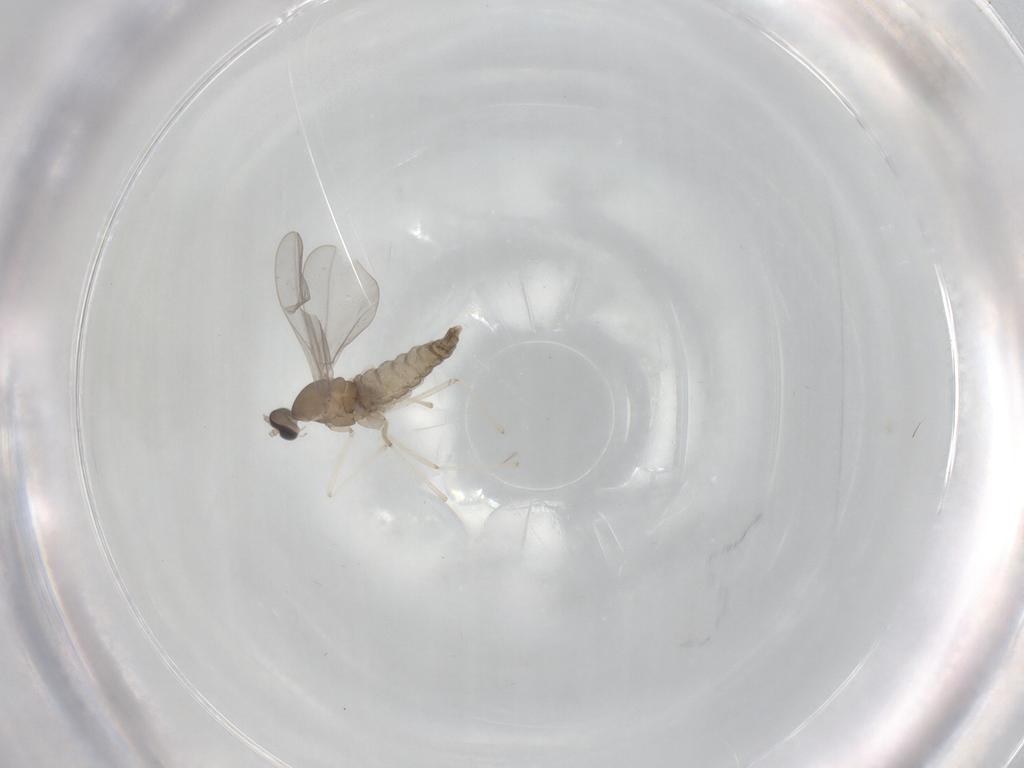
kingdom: Animalia
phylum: Arthropoda
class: Insecta
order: Diptera
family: Cecidomyiidae
